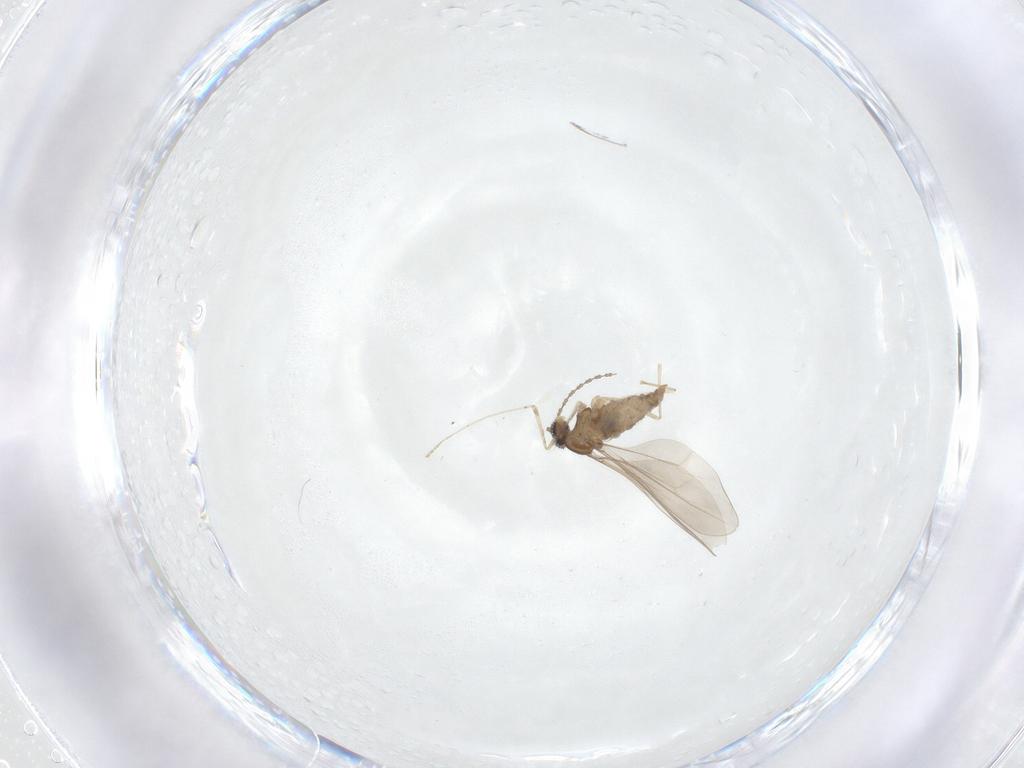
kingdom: Animalia
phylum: Arthropoda
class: Insecta
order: Diptera
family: Cecidomyiidae
